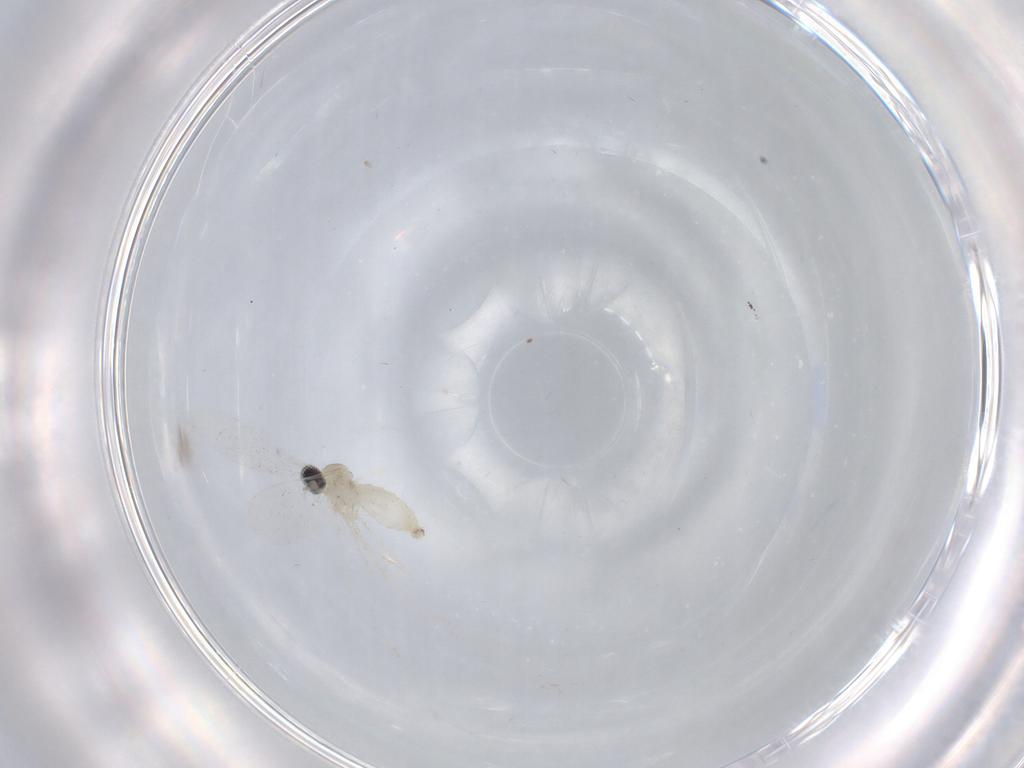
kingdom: Animalia
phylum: Arthropoda
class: Insecta
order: Diptera
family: Cecidomyiidae
